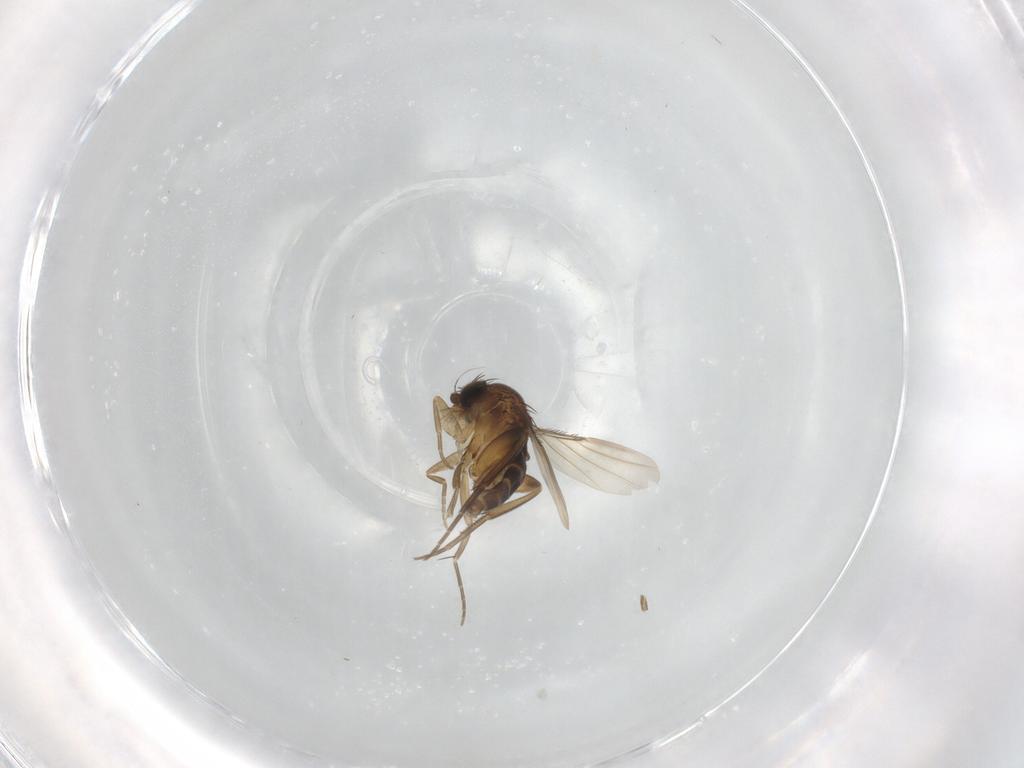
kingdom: Animalia
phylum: Arthropoda
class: Insecta
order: Diptera
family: Phoridae
